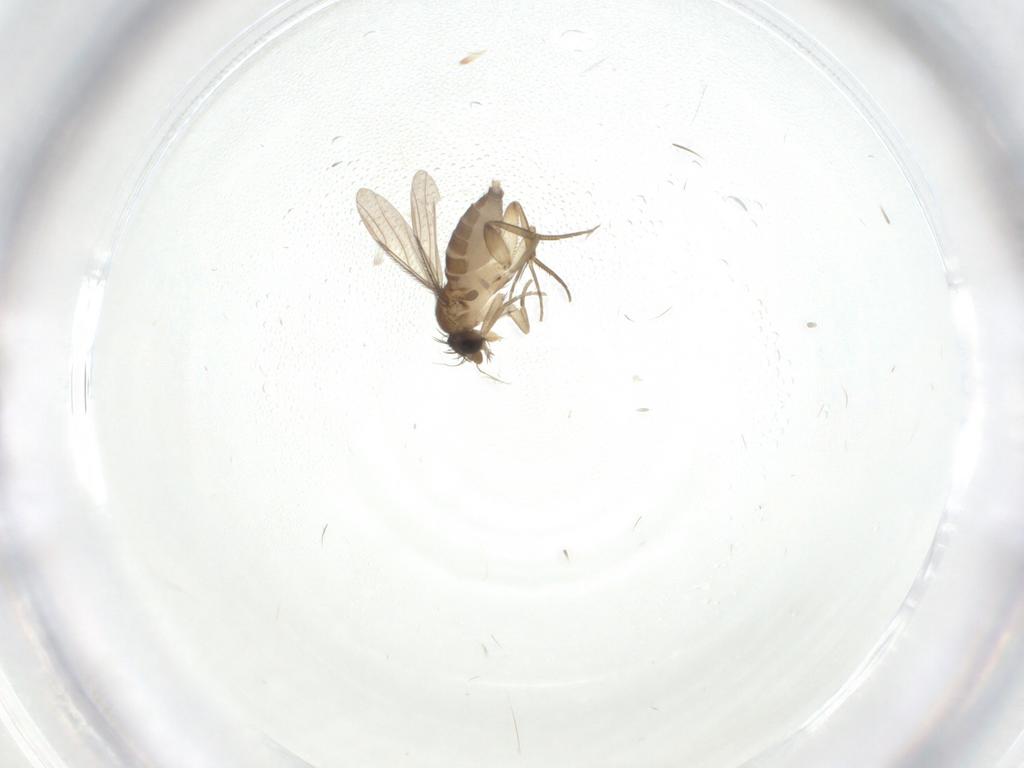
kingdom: Animalia
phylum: Arthropoda
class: Insecta
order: Diptera
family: Phoridae
